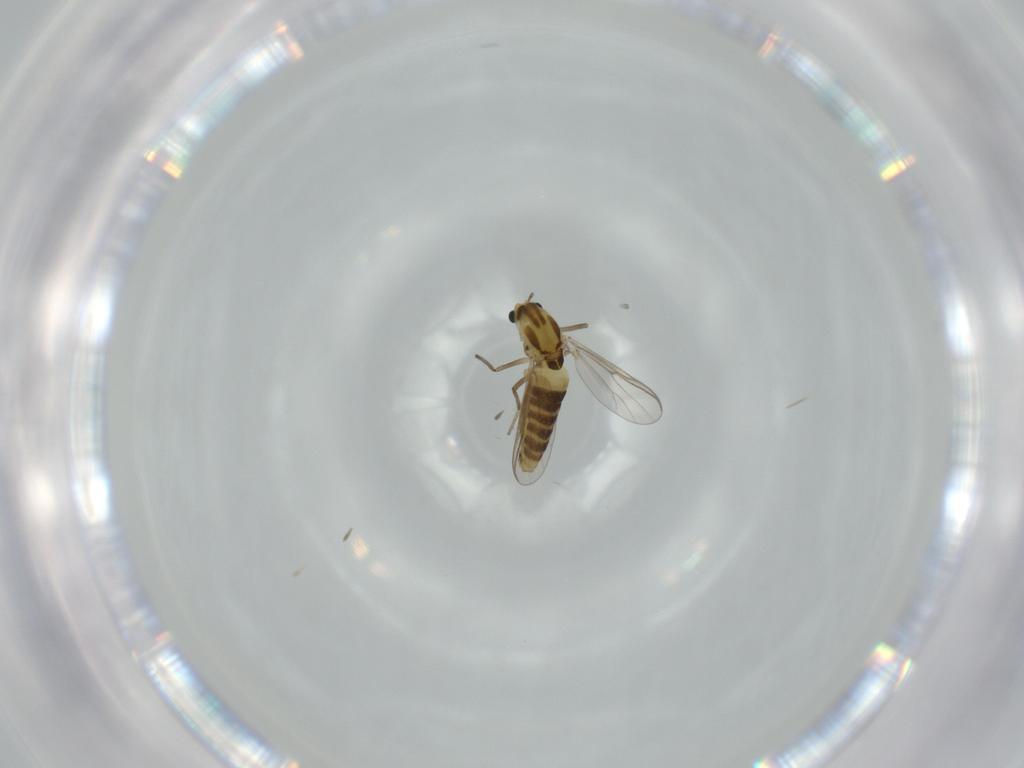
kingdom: Animalia
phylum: Arthropoda
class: Insecta
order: Diptera
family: Chironomidae
